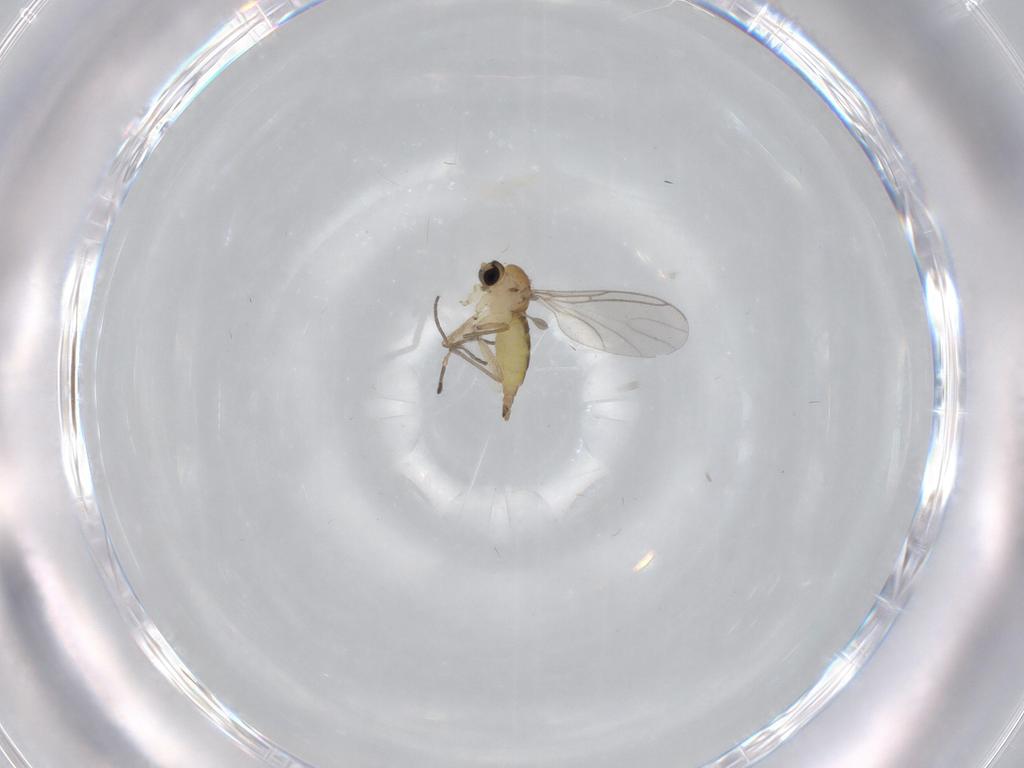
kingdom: Animalia
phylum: Arthropoda
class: Insecta
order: Diptera
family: Sciaridae
